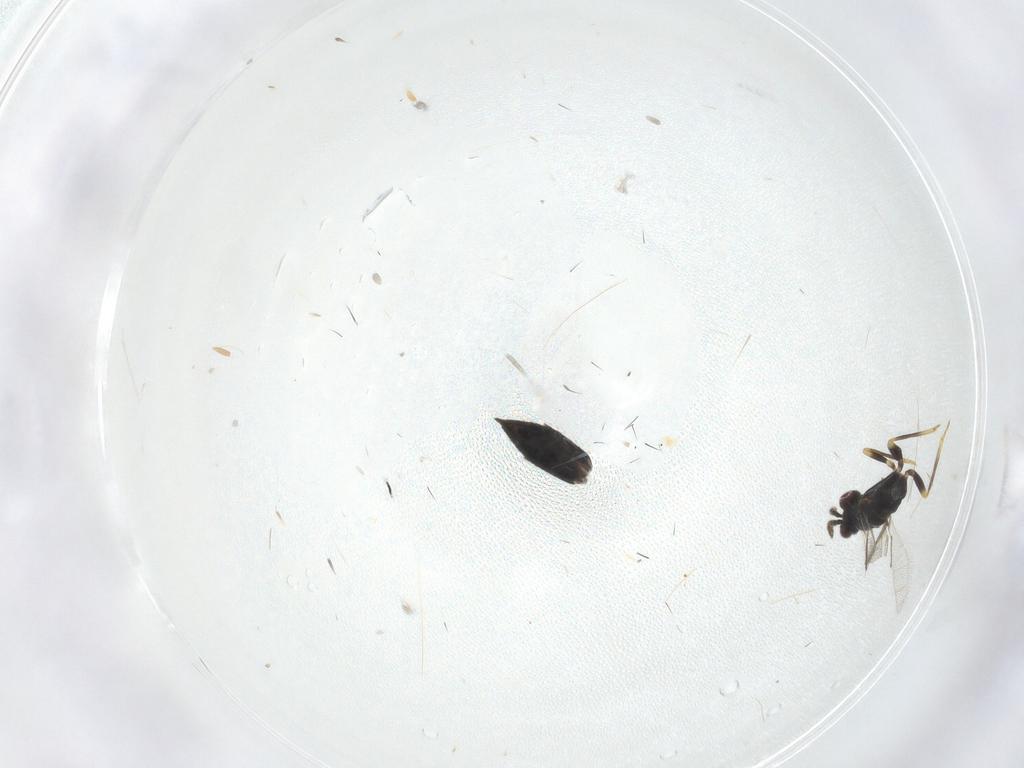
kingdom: Animalia
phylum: Arthropoda
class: Insecta
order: Hymenoptera
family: Eulophidae
